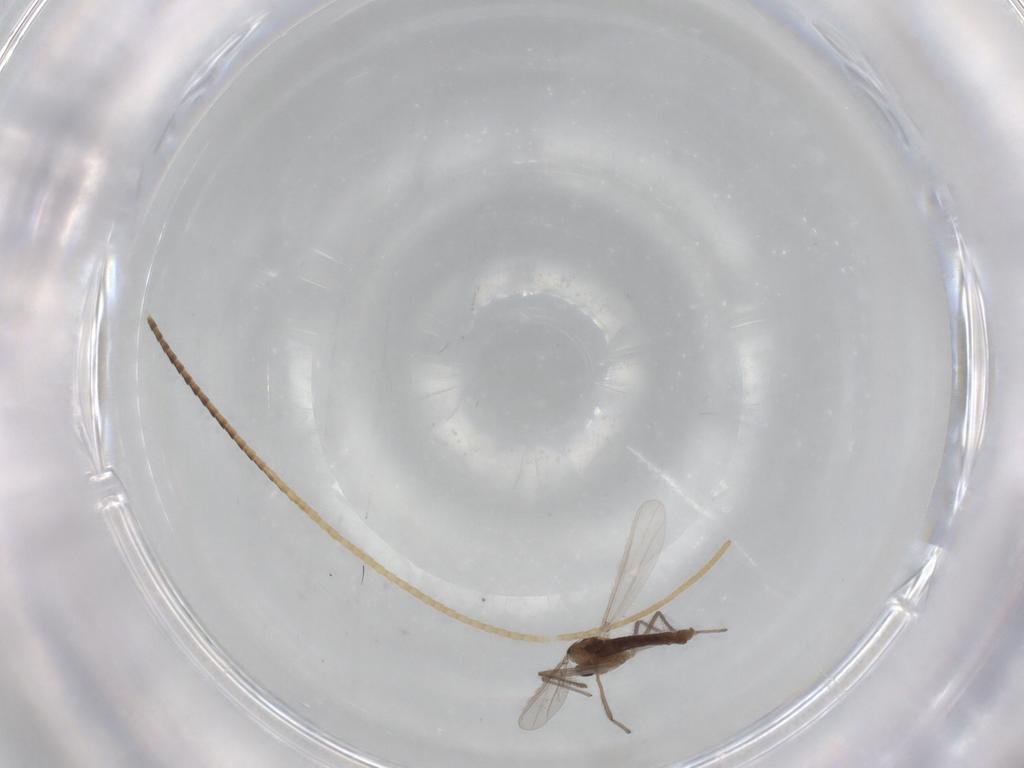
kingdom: Animalia
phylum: Arthropoda
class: Insecta
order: Diptera
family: Chironomidae
